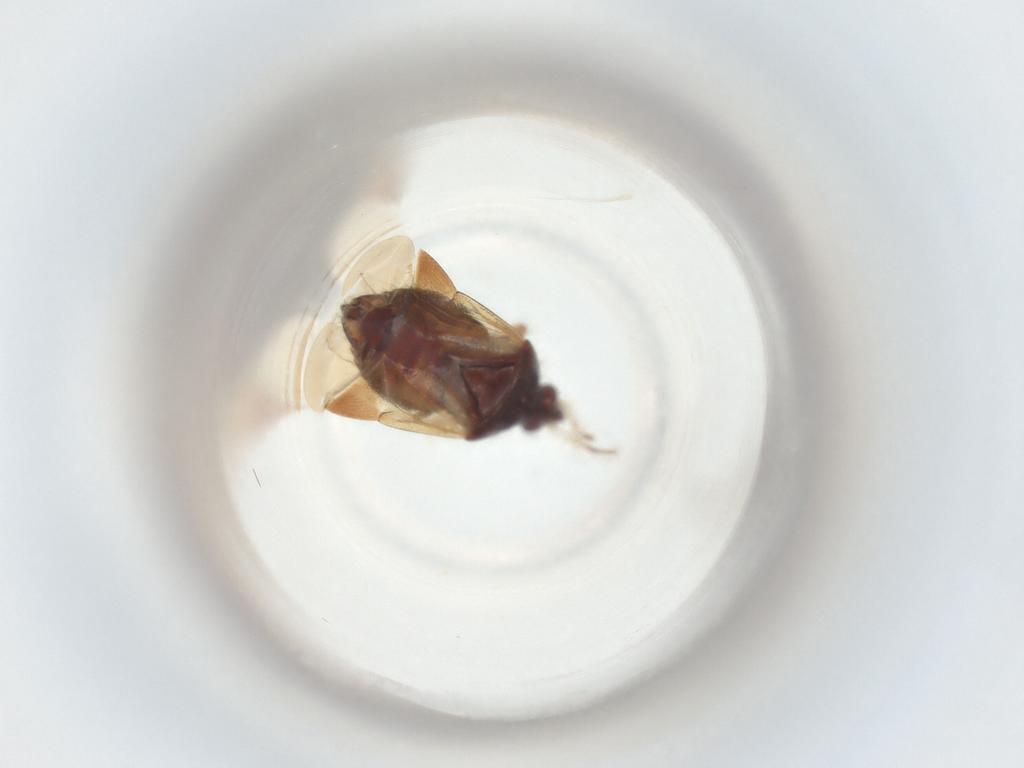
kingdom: Animalia
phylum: Arthropoda
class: Insecta
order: Hemiptera
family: Anthocoridae
